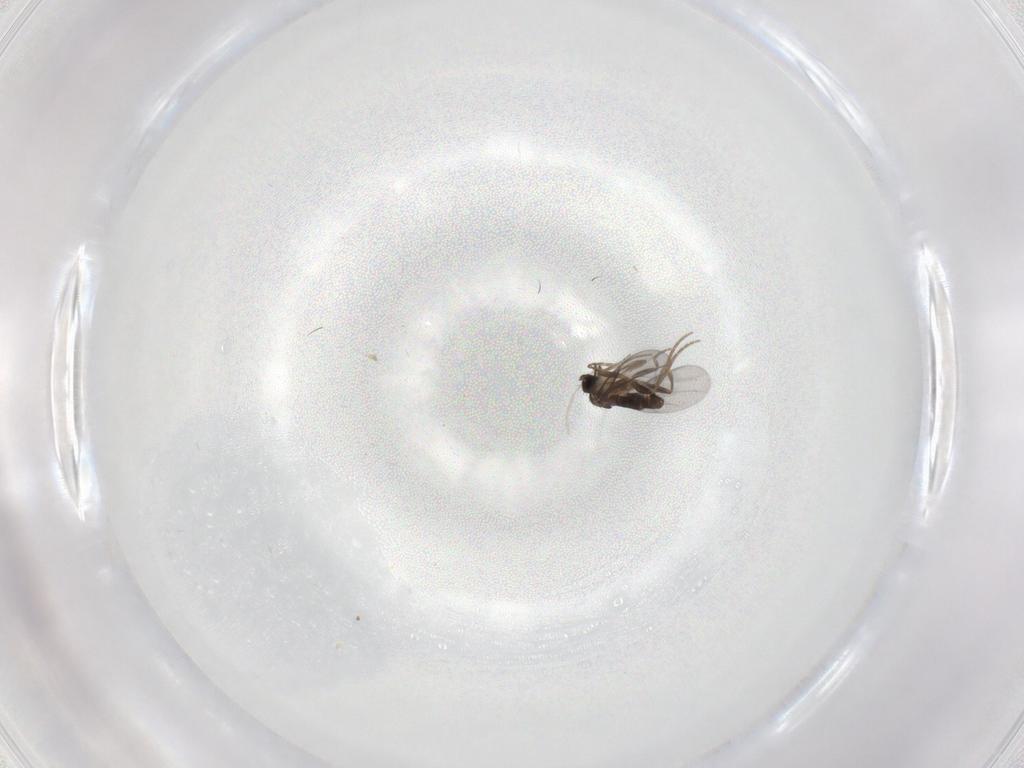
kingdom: Animalia
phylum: Arthropoda
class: Insecta
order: Diptera
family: Cecidomyiidae
